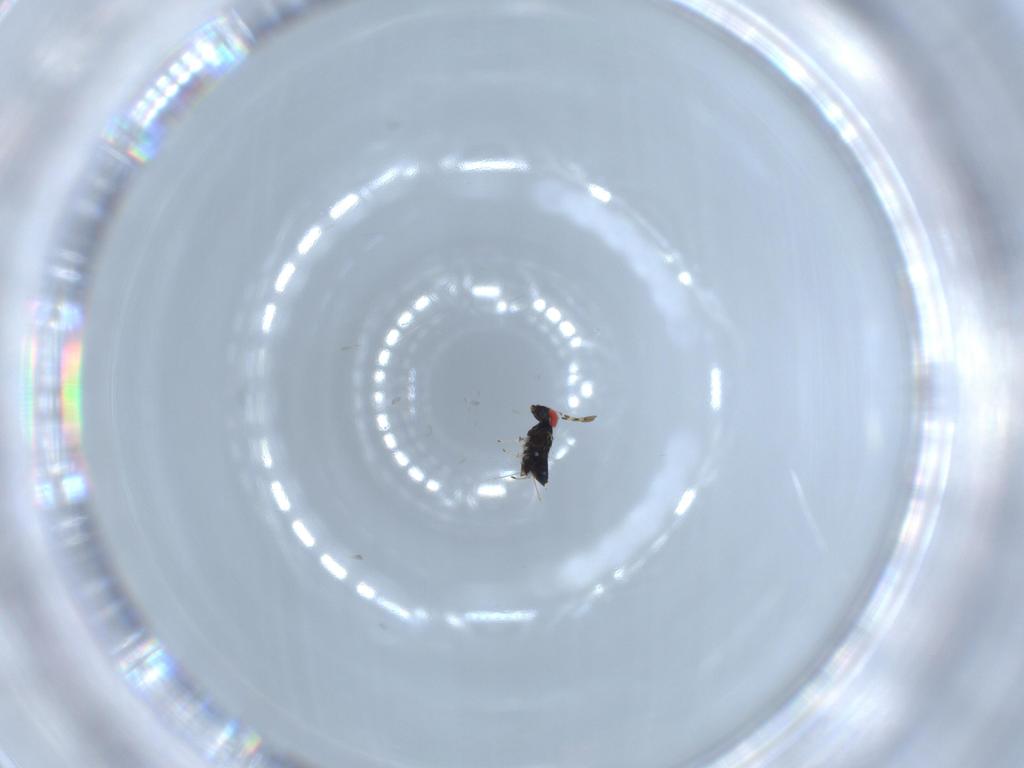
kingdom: Animalia
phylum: Arthropoda
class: Insecta
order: Hymenoptera
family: Azotidae
